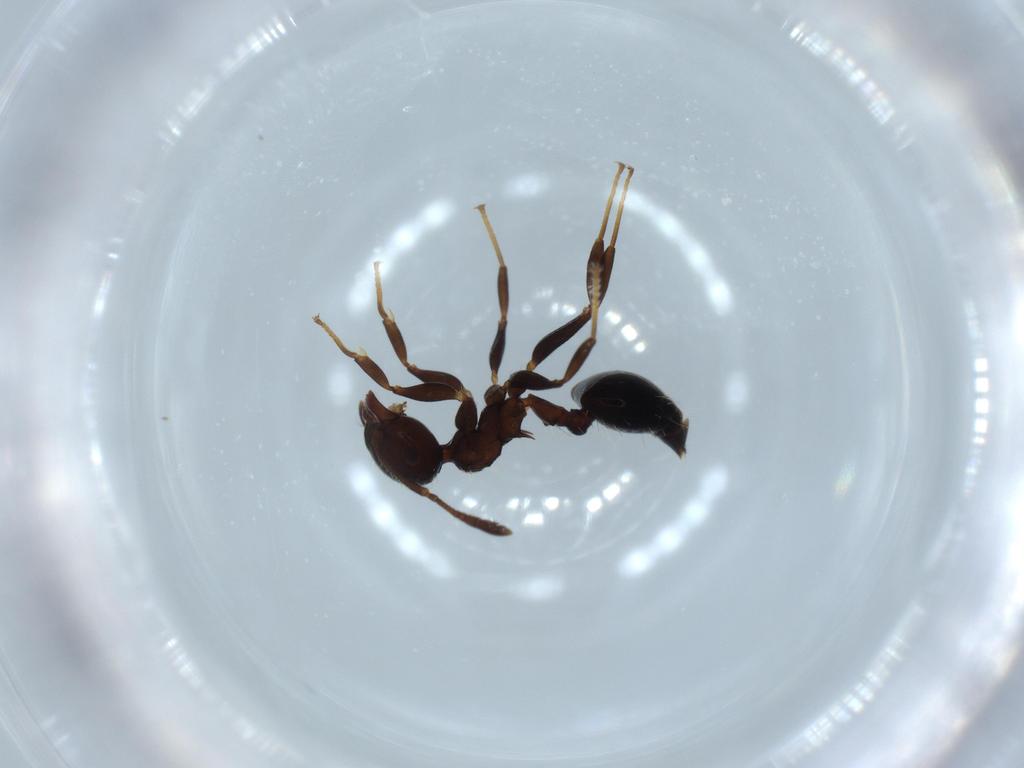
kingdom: Animalia
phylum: Arthropoda
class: Insecta
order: Hymenoptera
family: Formicidae
